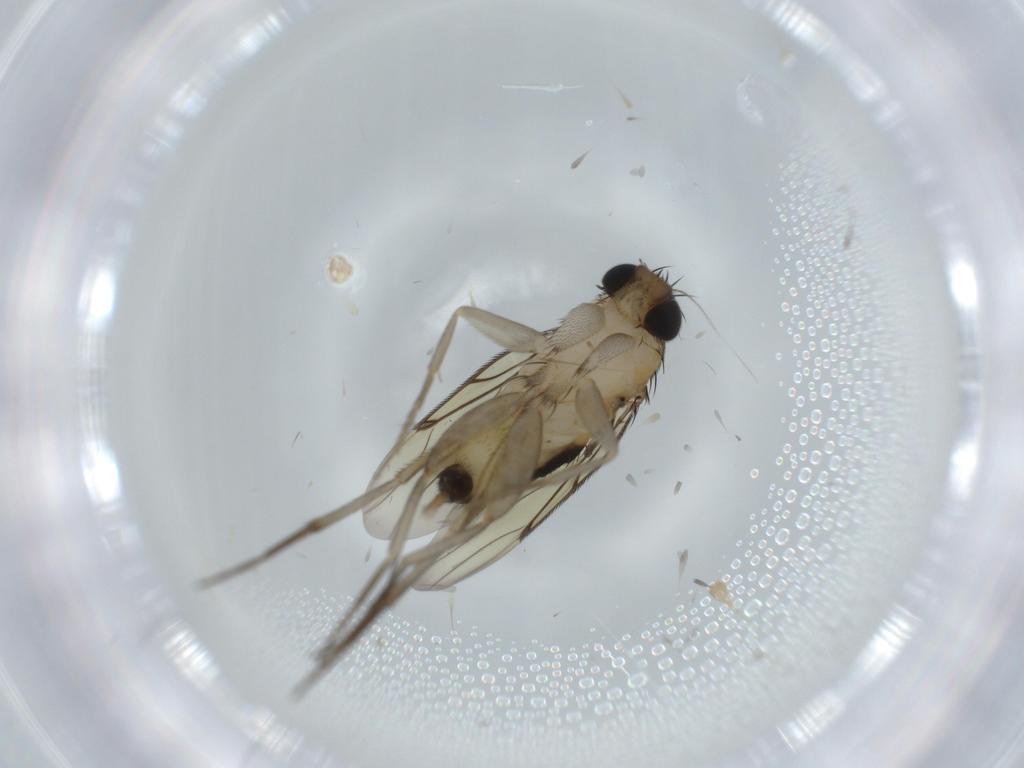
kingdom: Animalia
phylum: Arthropoda
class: Insecta
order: Diptera
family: Sciaridae
